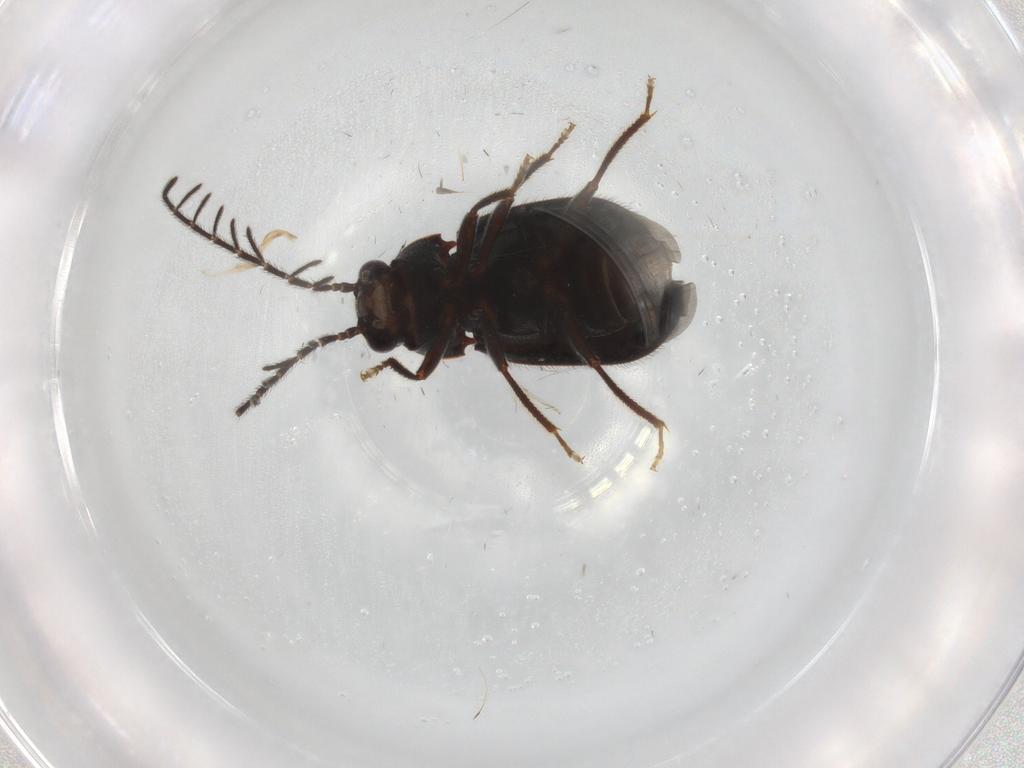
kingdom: Animalia
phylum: Arthropoda
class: Insecta
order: Coleoptera
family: Ptilodactylidae
